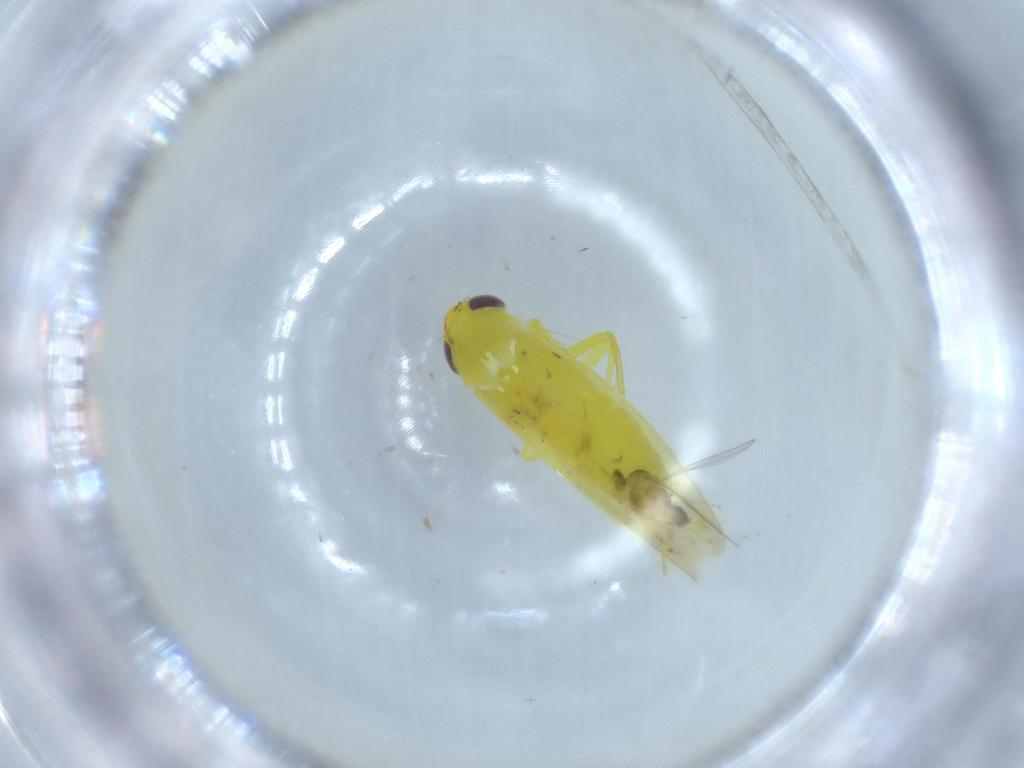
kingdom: Animalia
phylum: Arthropoda
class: Insecta
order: Hemiptera
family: Cicadellidae
